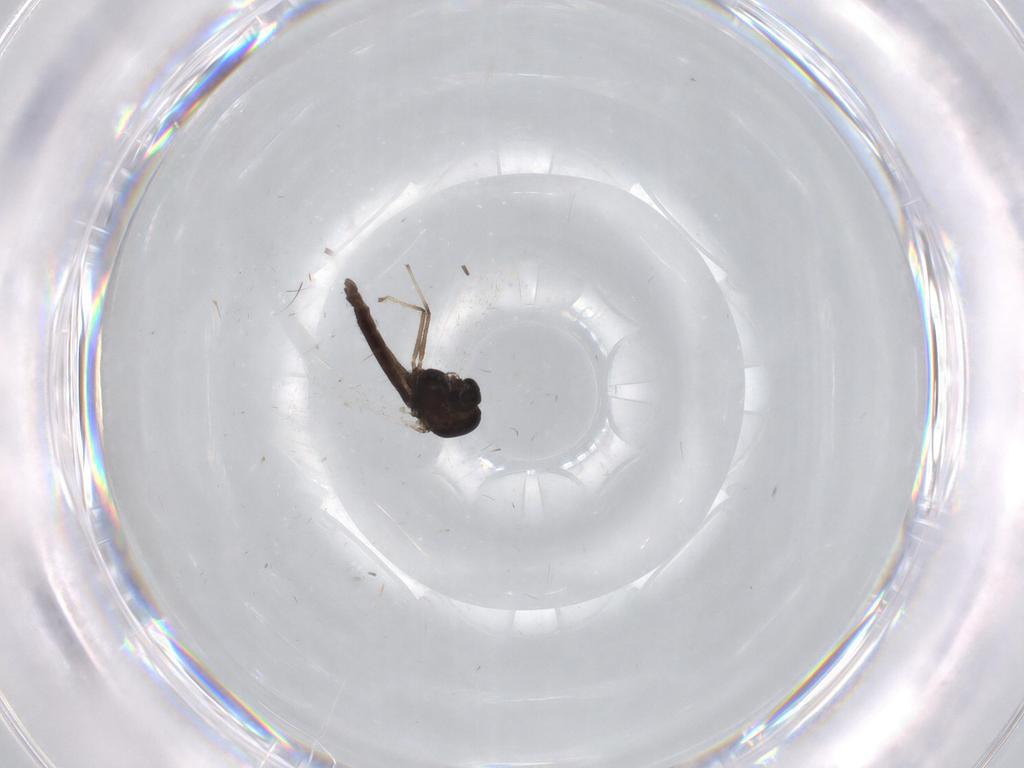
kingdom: Animalia
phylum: Arthropoda
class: Insecta
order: Diptera
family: Chironomidae
